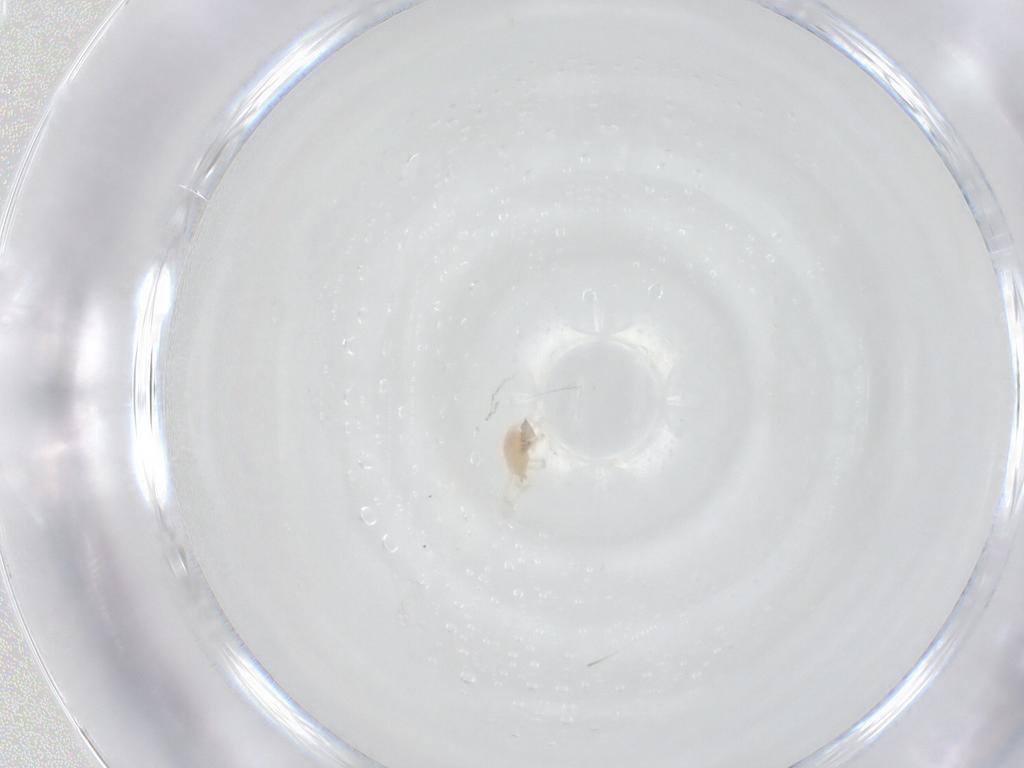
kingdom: Animalia
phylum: Arthropoda
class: Arachnida
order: Trombidiformes
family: Erythraeidae
